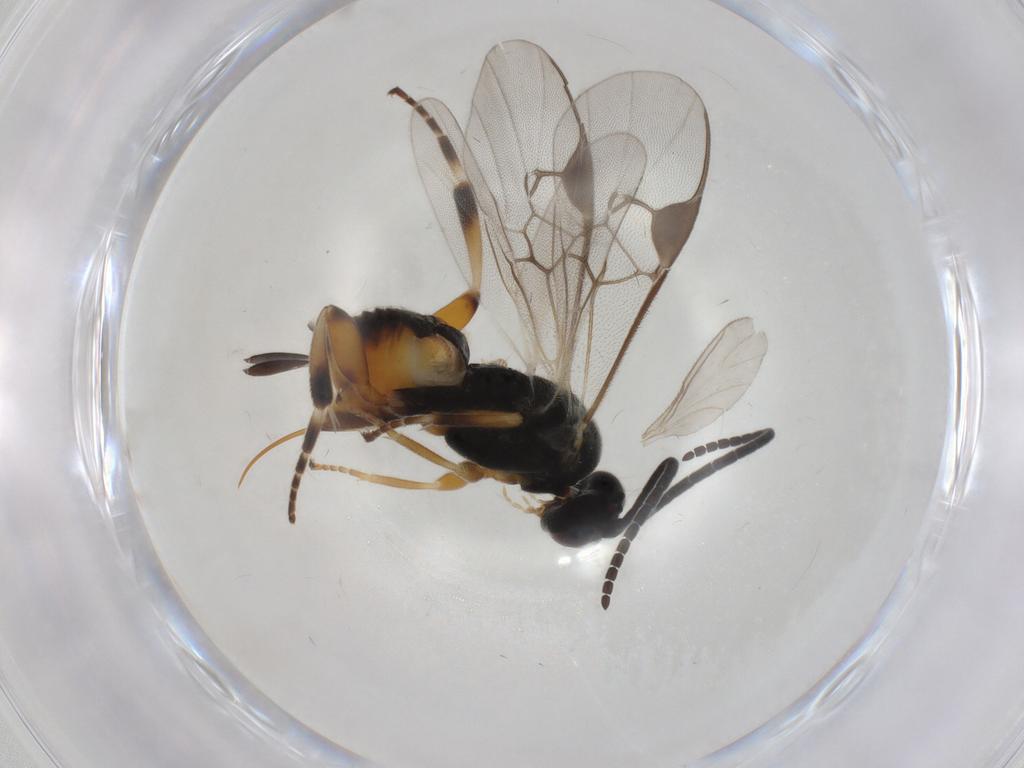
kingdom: Animalia
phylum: Arthropoda
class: Insecta
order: Hymenoptera
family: Braconidae
